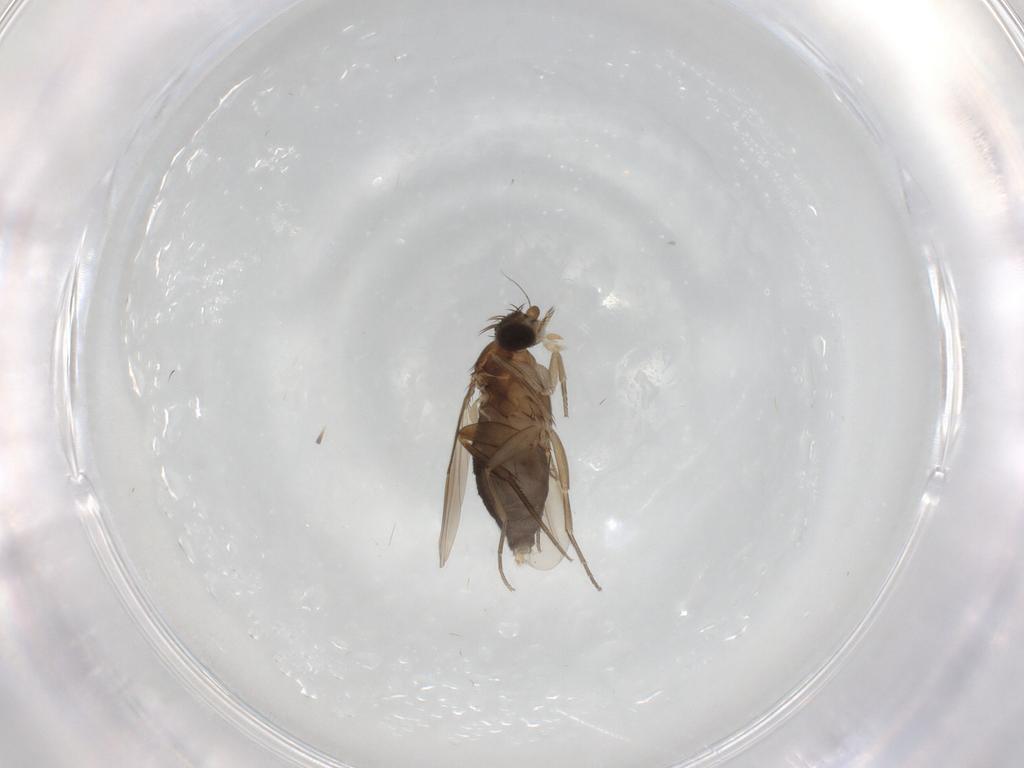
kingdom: Animalia
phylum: Arthropoda
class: Insecta
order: Diptera
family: Phoridae
